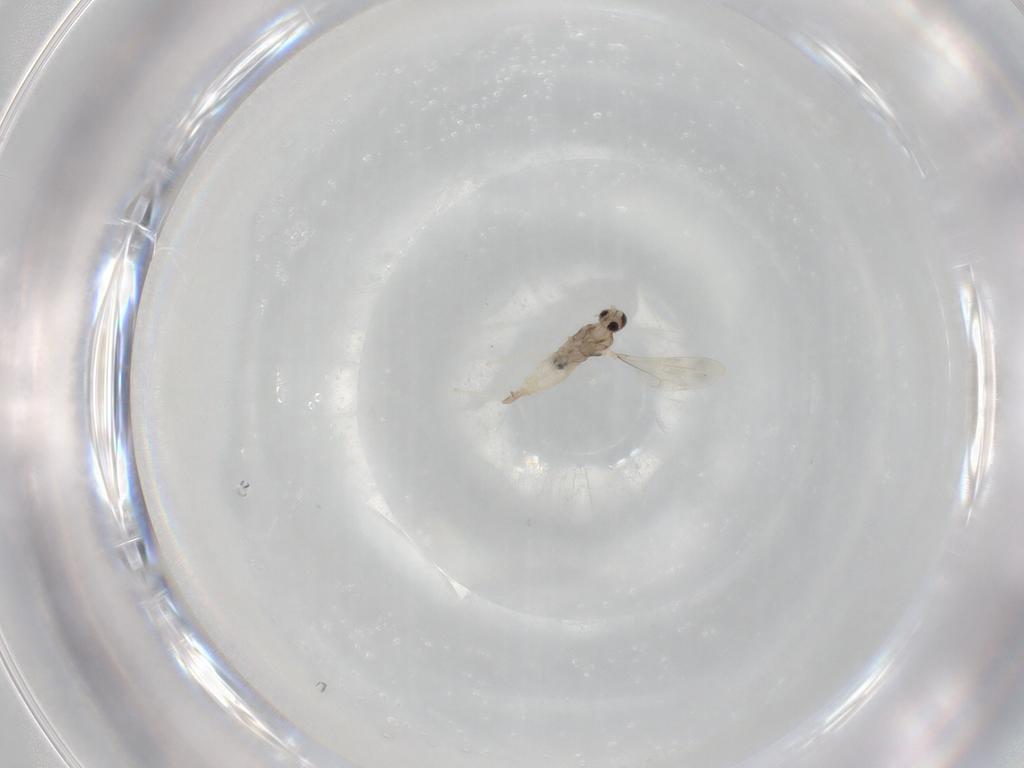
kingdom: Animalia
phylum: Arthropoda
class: Insecta
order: Diptera
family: Cecidomyiidae
